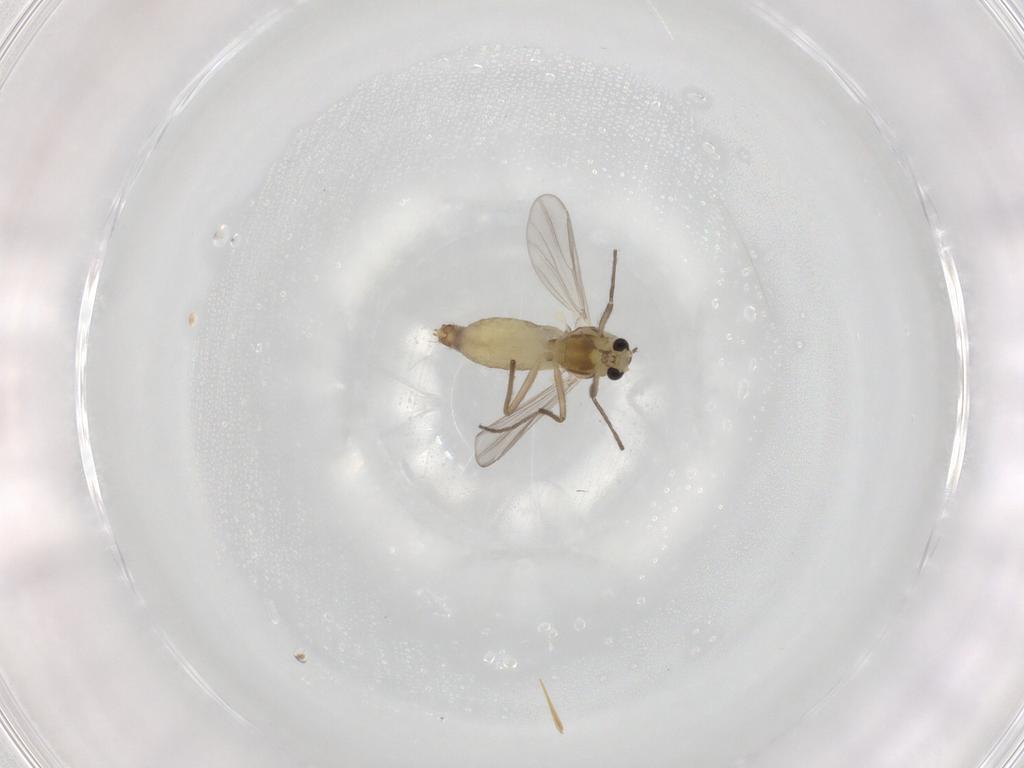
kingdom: Animalia
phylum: Arthropoda
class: Insecta
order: Diptera
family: Chironomidae
